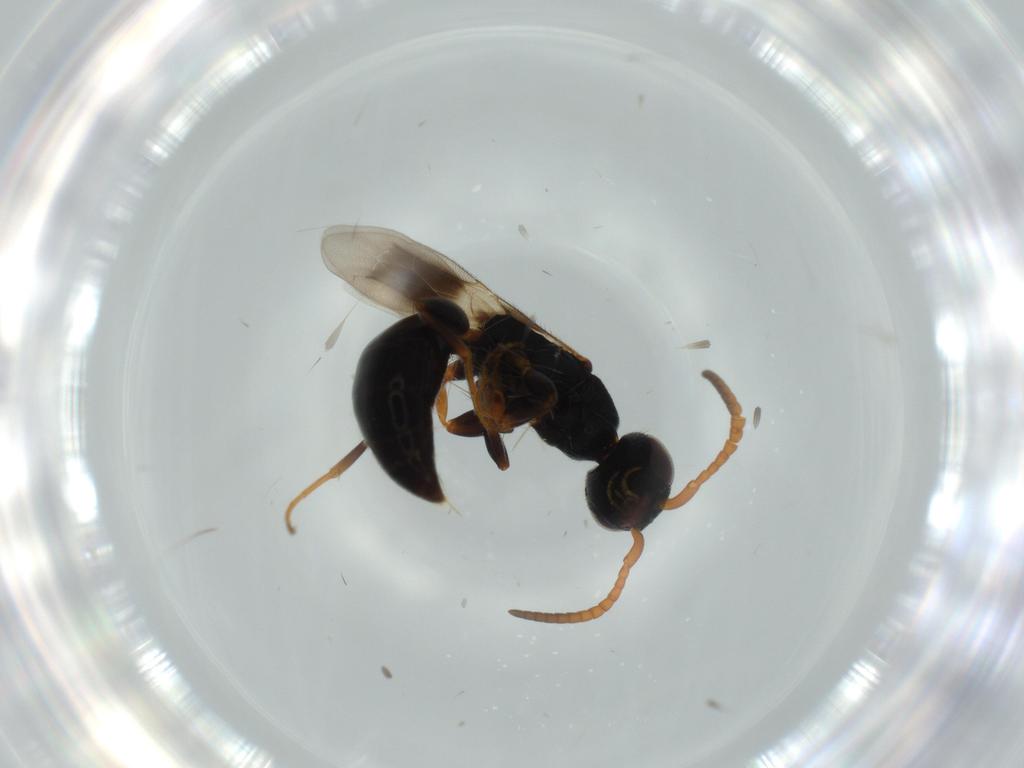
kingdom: Animalia
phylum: Arthropoda
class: Insecta
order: Hymenoptera
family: Bethylidae
